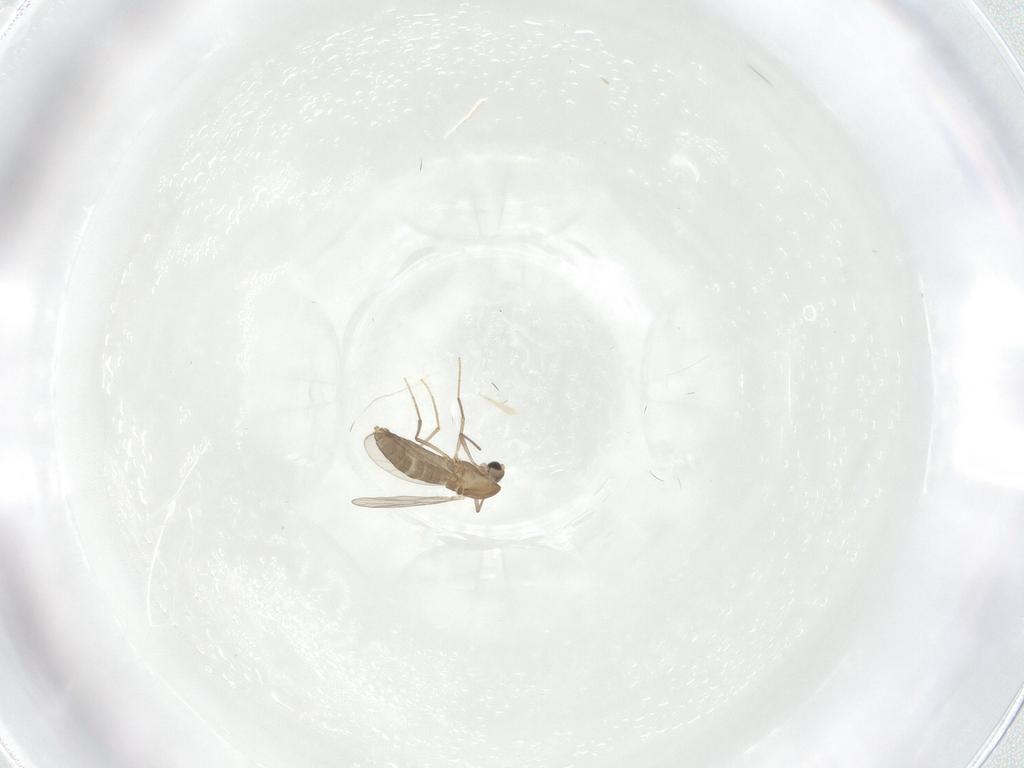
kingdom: Animalia
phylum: Arthropoda
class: Insecta
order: Diptera
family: Chironomidae
